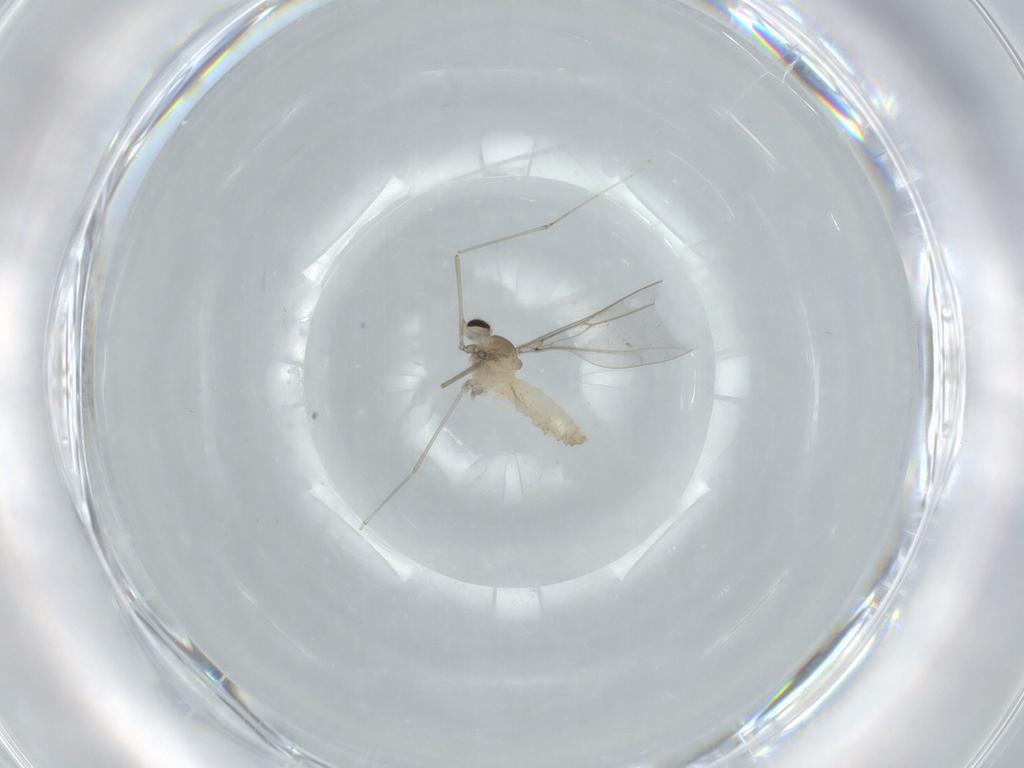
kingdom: Animalia
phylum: Arthropoda
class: Insecta
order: Diptera
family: Cecidomyiidae
